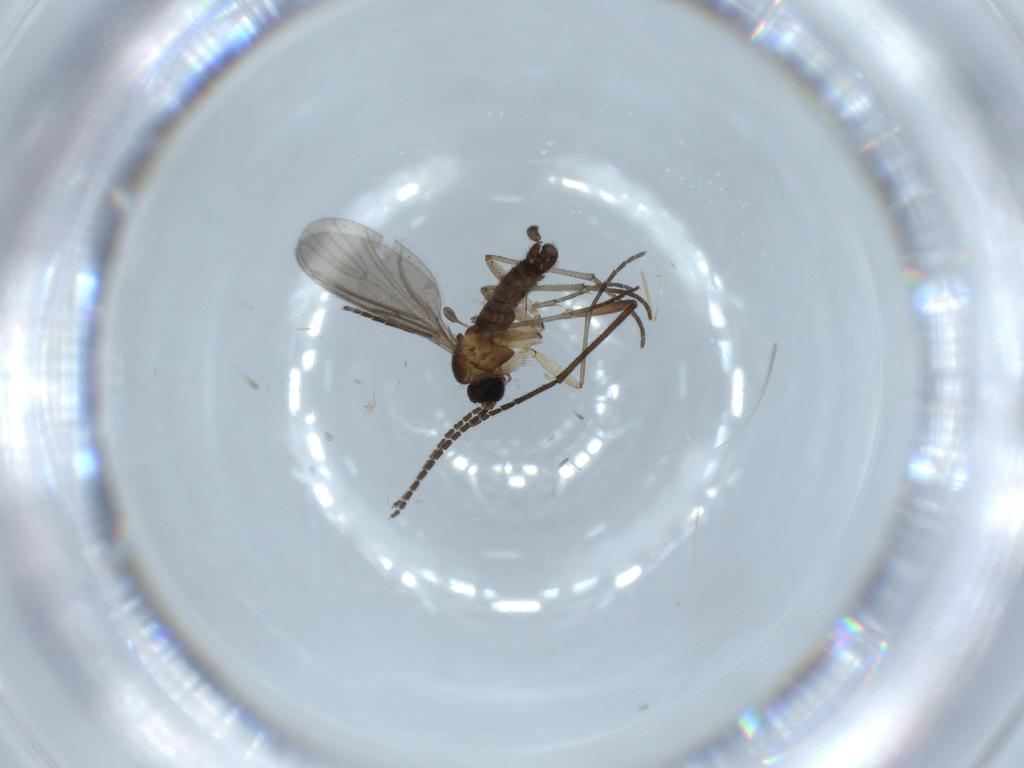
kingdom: Animalia
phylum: Arthropoda
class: Insecta
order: Diptera
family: Sciaridae
